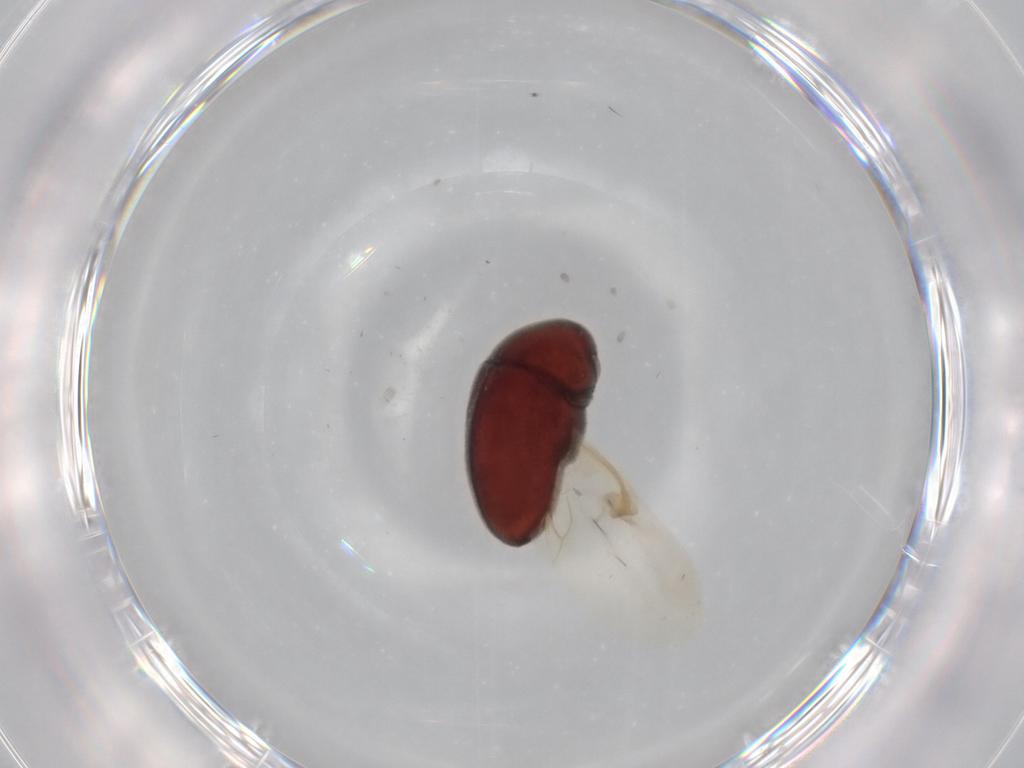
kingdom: Animalia
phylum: Arthropoda
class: Insecta
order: Coleoptera
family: Ptinidae
